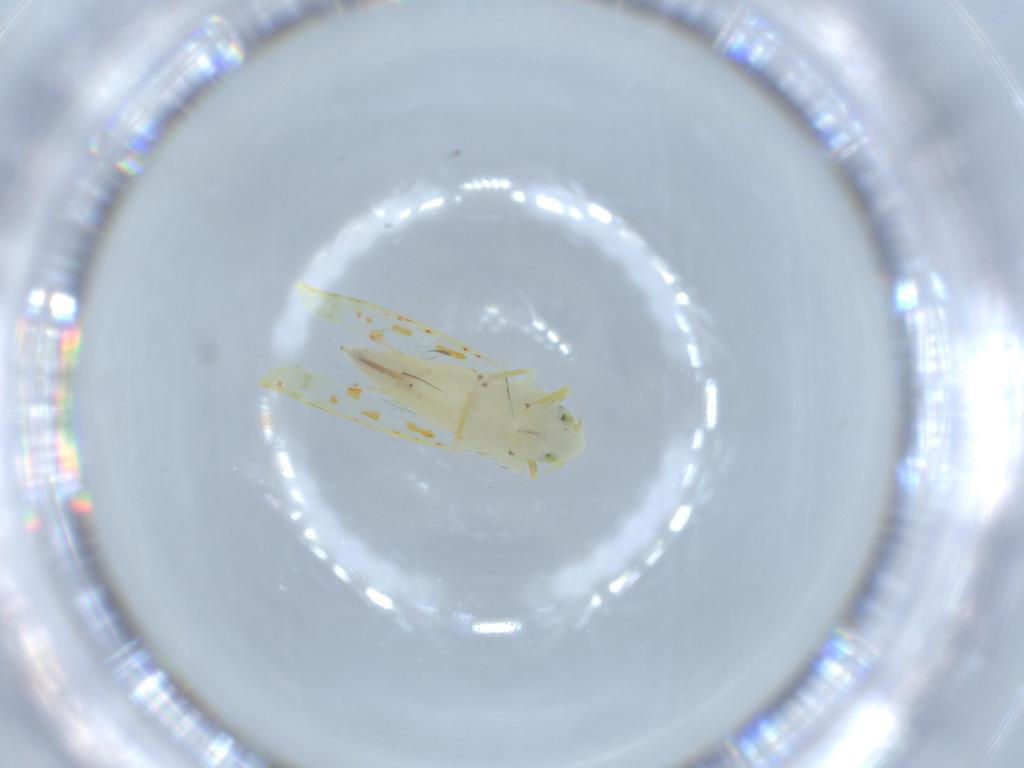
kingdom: Animalia
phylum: Arthropoda
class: Insecta
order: Hemiptera
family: Cicadellidae
